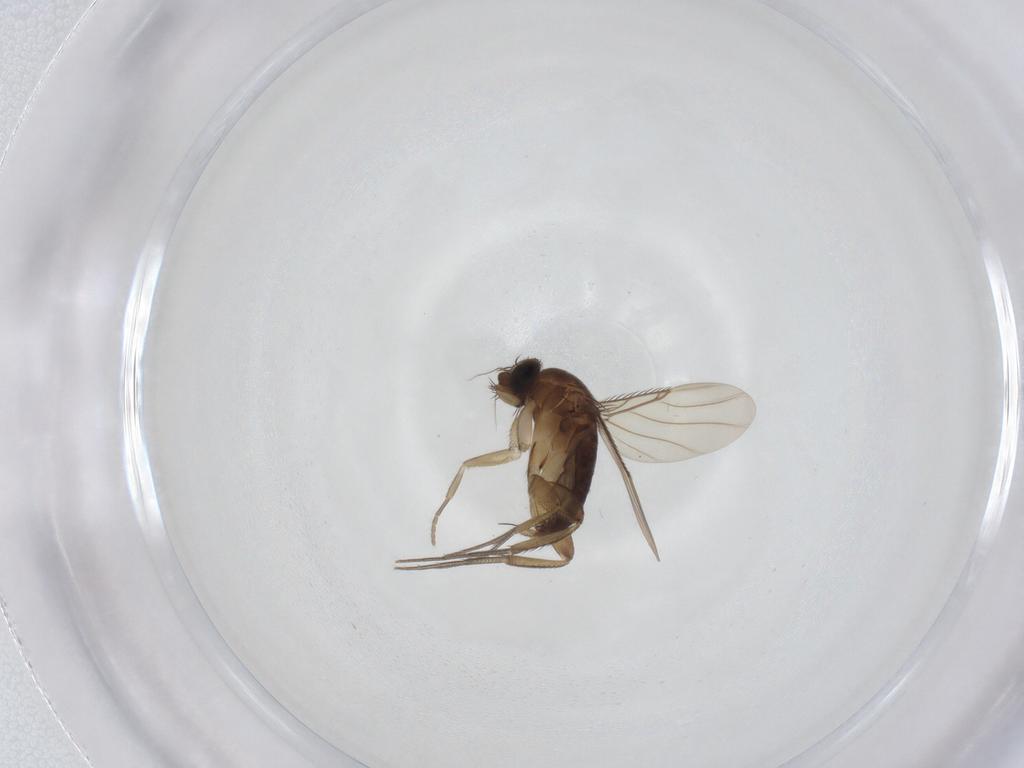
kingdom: Animalia
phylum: Arthropoda
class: Insecta
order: Diptera
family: Phoridae
